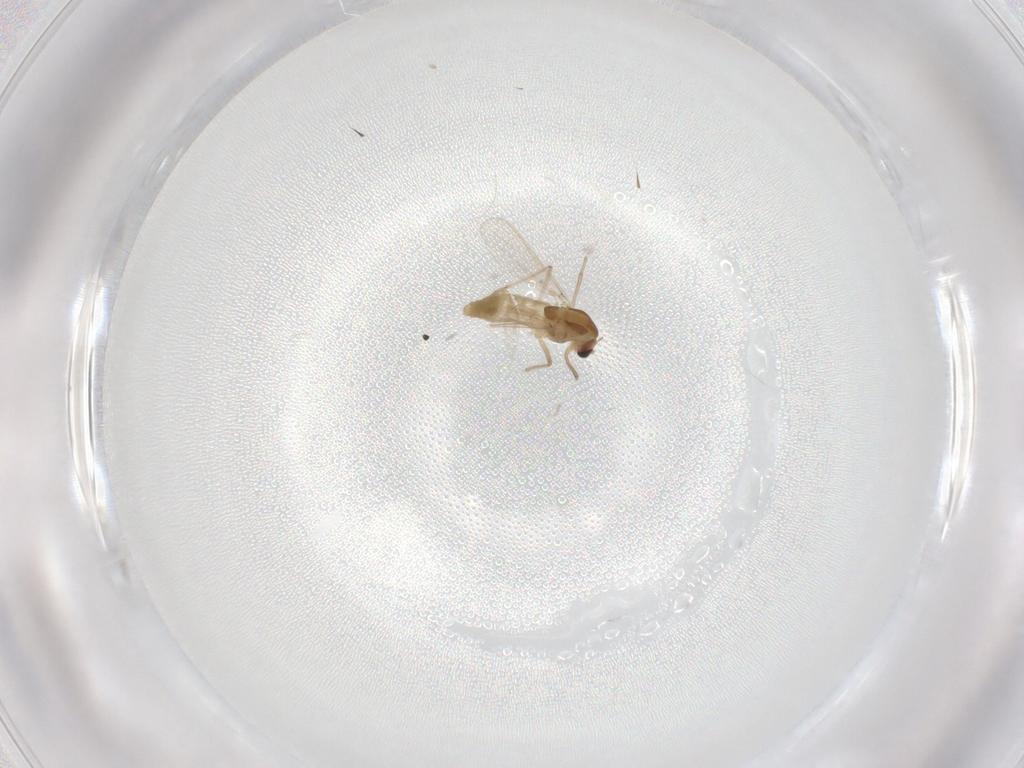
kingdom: Animalia
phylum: Arthropoda
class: Insecta
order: Diptera
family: Chironomidae
